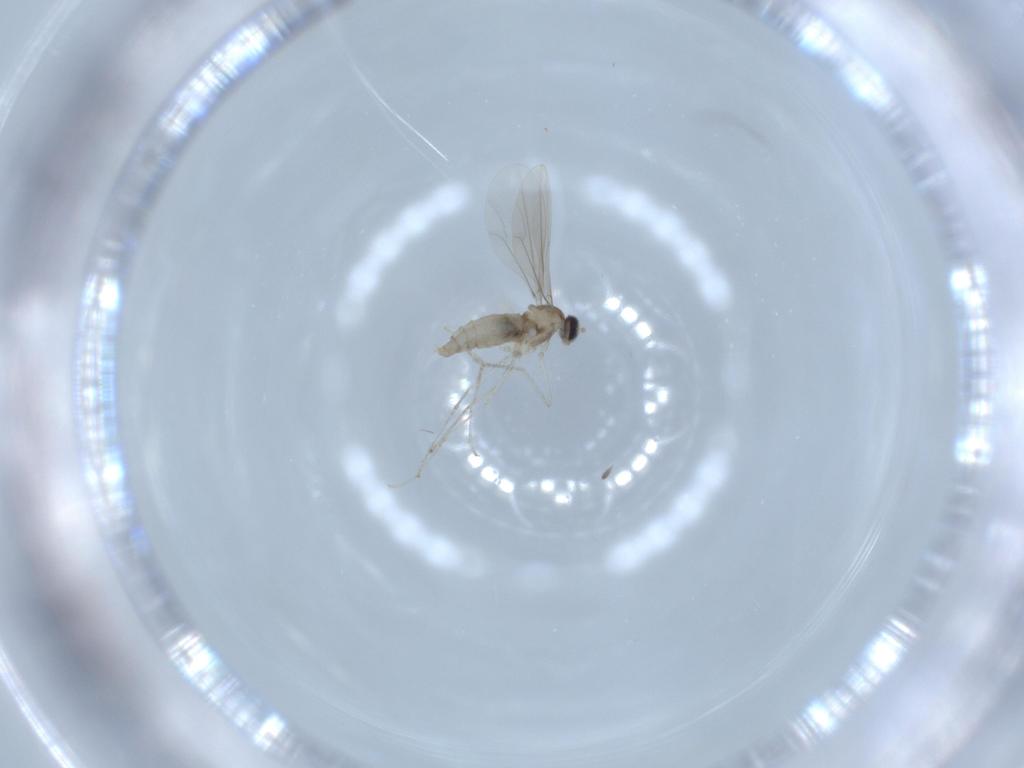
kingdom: Animalia
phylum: Arthropoda
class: Insecta
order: Diptera
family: Cecidomyiidae
